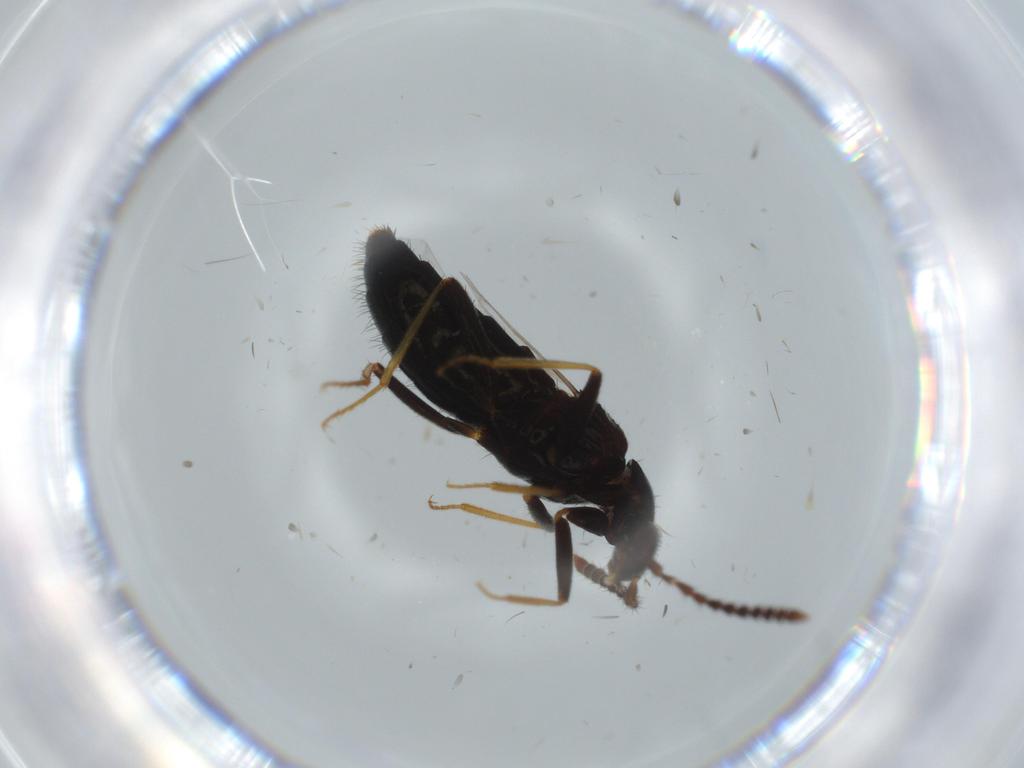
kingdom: Animalia
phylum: Arthropoda
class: Insecta
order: Coleoptera
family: Staphylinidae
